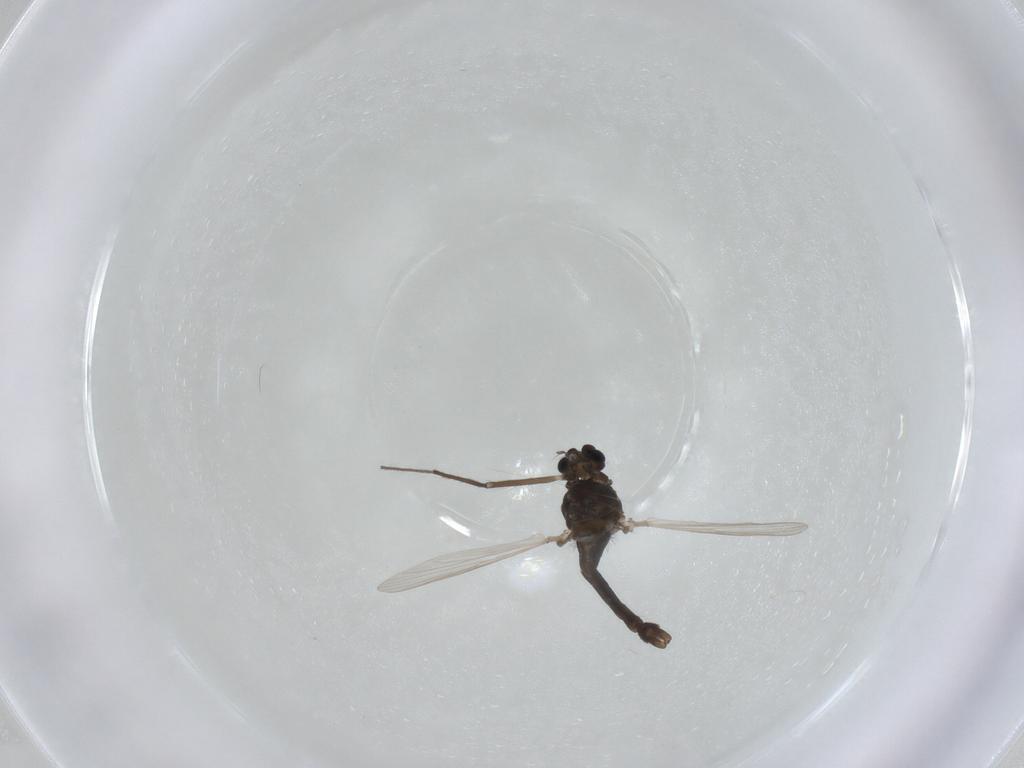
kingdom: Animalia
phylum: Arthropoda
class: Insecta
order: Diptera
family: Chironomidae
